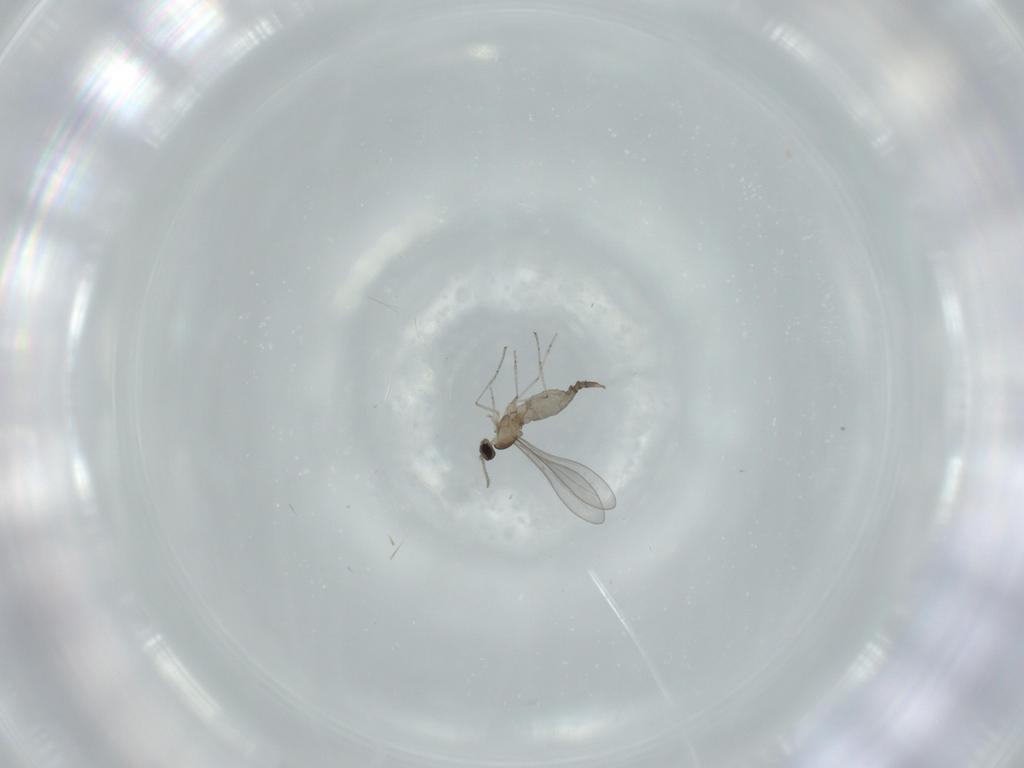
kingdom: Animalia
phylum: Arthropoda
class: Insecta
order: Diptera
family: Cecidomyiidae
